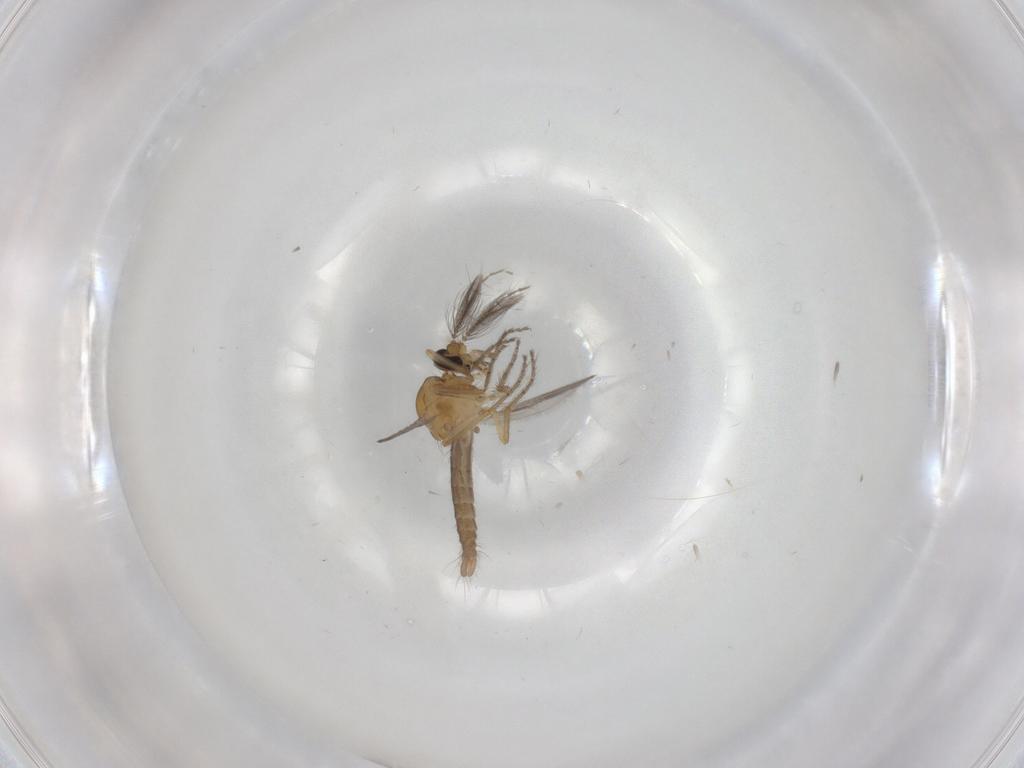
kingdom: Animalia
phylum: Arthropoda
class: Insecta
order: Diptera
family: Ceratopogonidae
